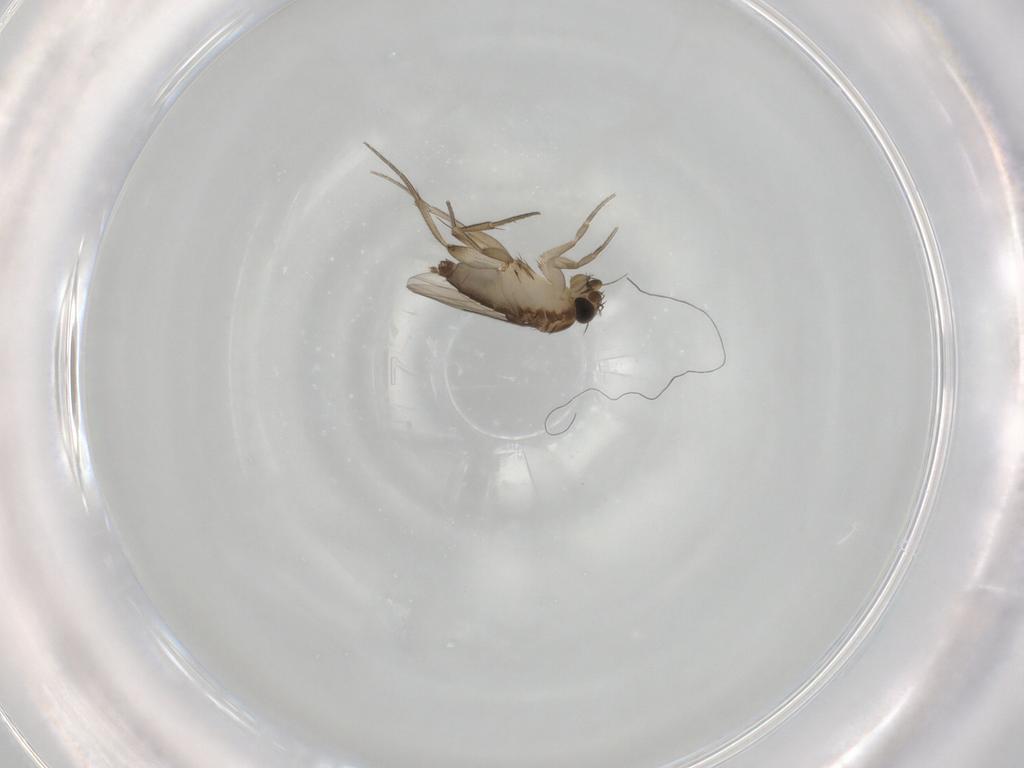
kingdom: Animalia
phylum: Arthropoda
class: Insecta
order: Diptera
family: Phoridae
